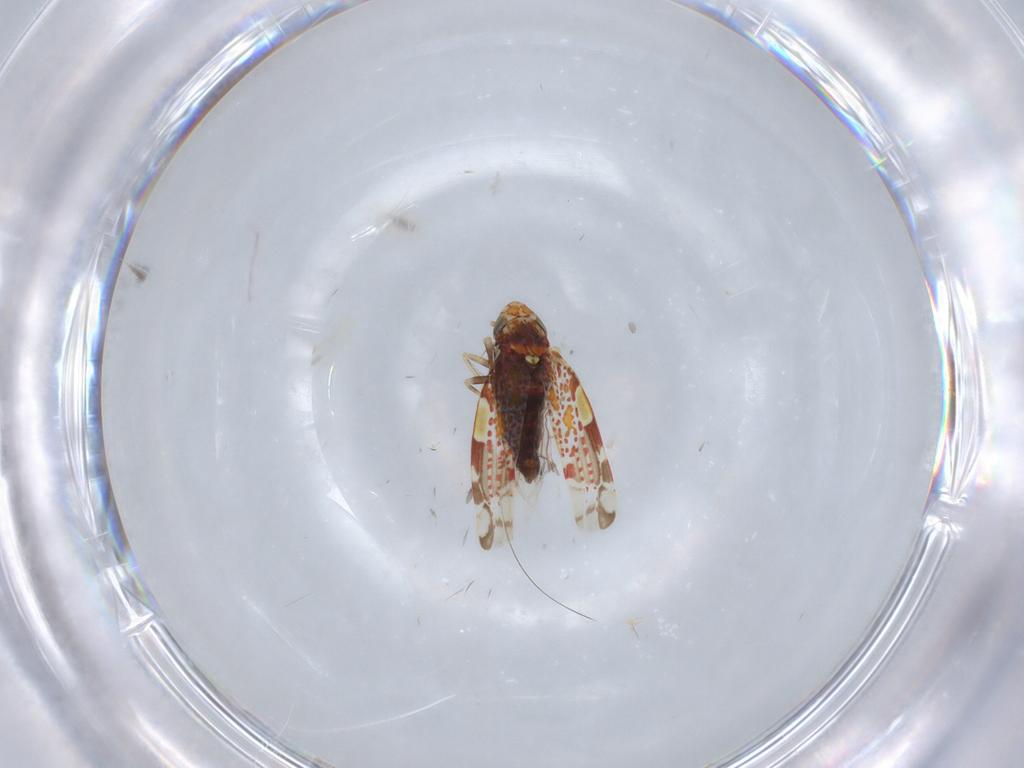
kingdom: Animalia
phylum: Arthropoda
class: Insecta
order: Hemiptera
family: Cicadellidae
